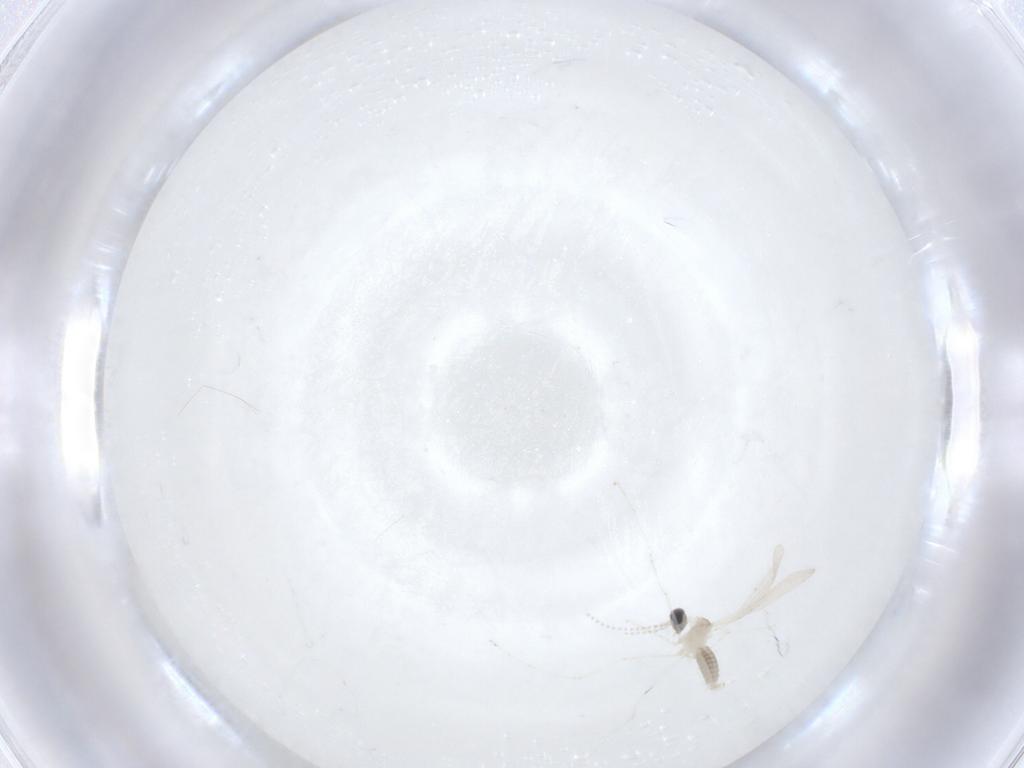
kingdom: Animalia
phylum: Arthropoda
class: Insecta
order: Diptera
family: Cecidomyiidae
